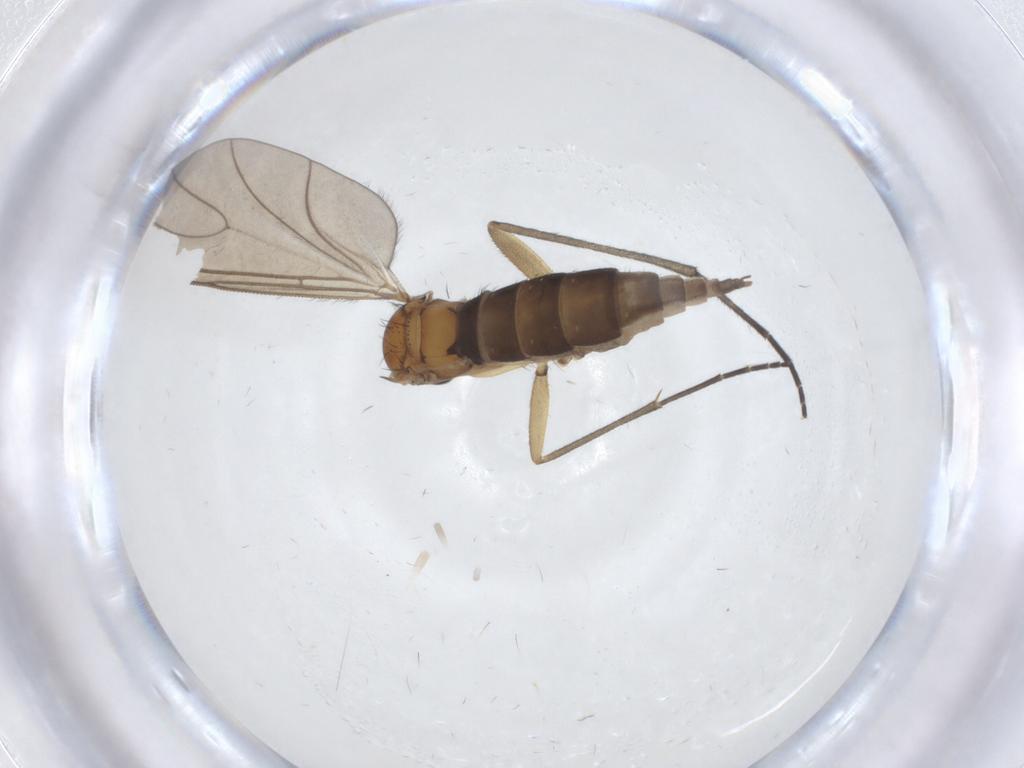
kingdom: Animalia
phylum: Arthropoda
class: Insecta
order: Diptera
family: Sciaridae
